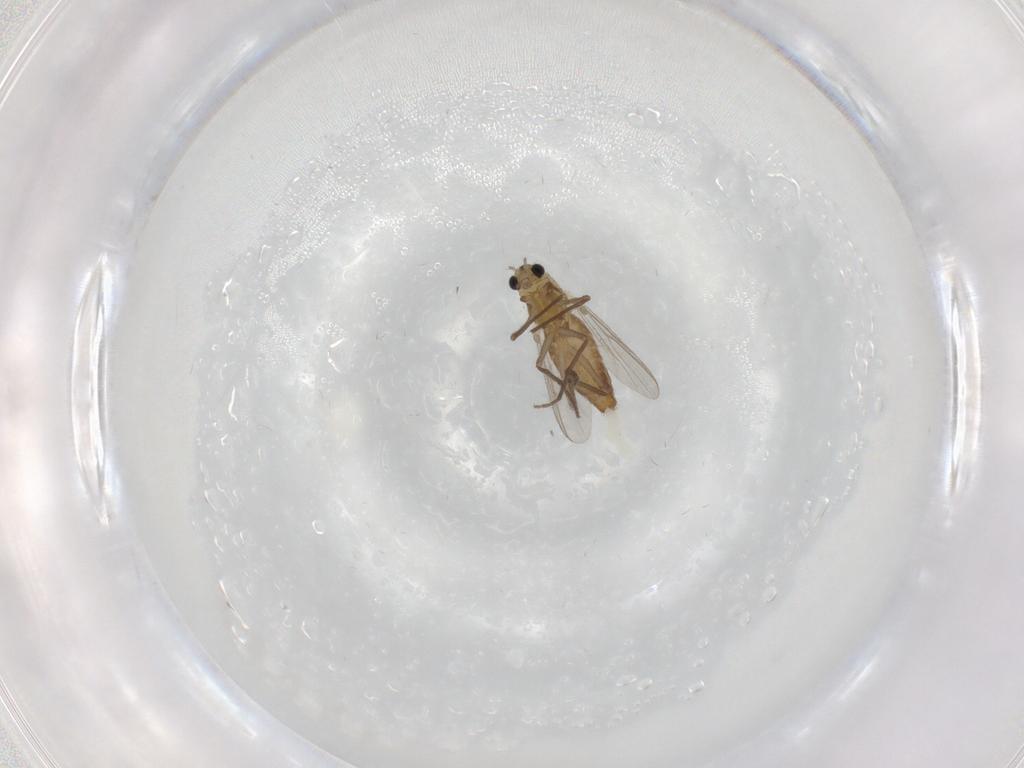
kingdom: Animalia
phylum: Arthropoda
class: Insecta
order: Diptera
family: Chironomidae
